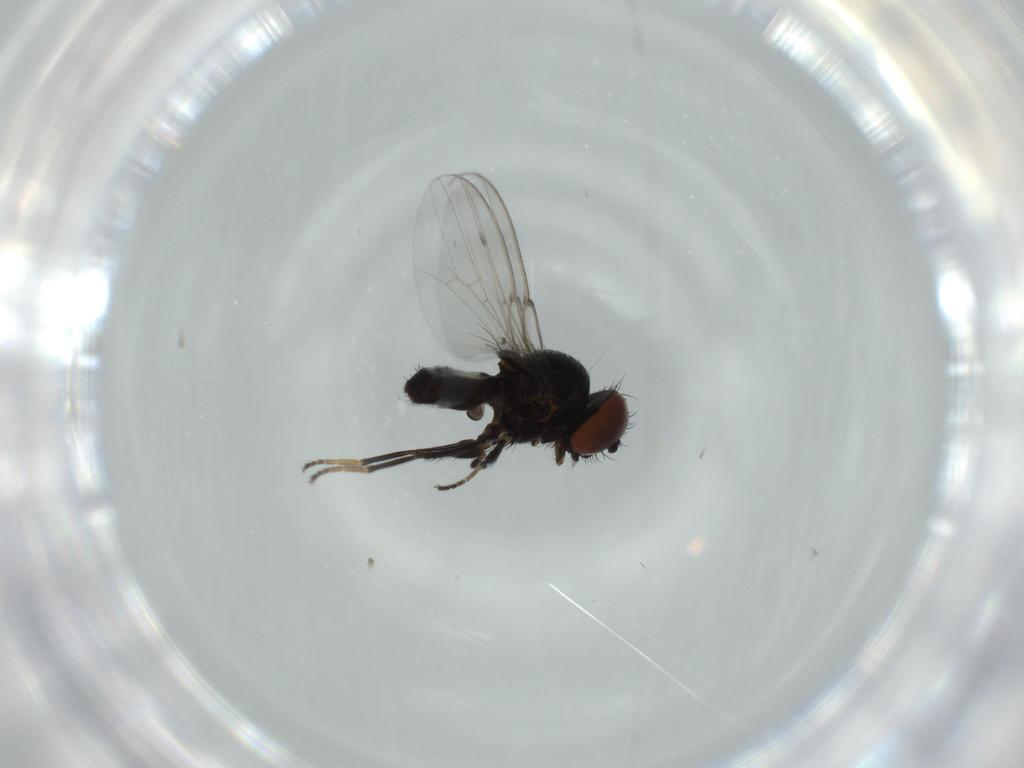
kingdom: Animalia
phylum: Arthropoda
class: Insecta
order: Diptera
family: Milichiidae
